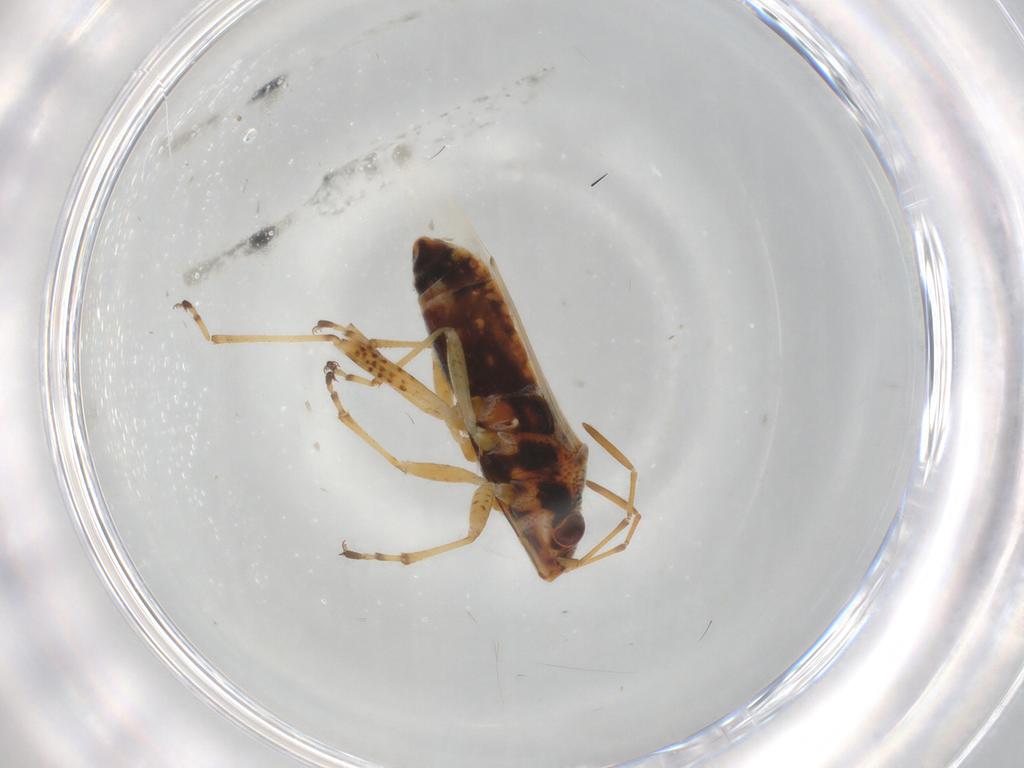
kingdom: Animalia
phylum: Arthropoda
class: Insecta
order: Hemiptera
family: Lygaeidae
